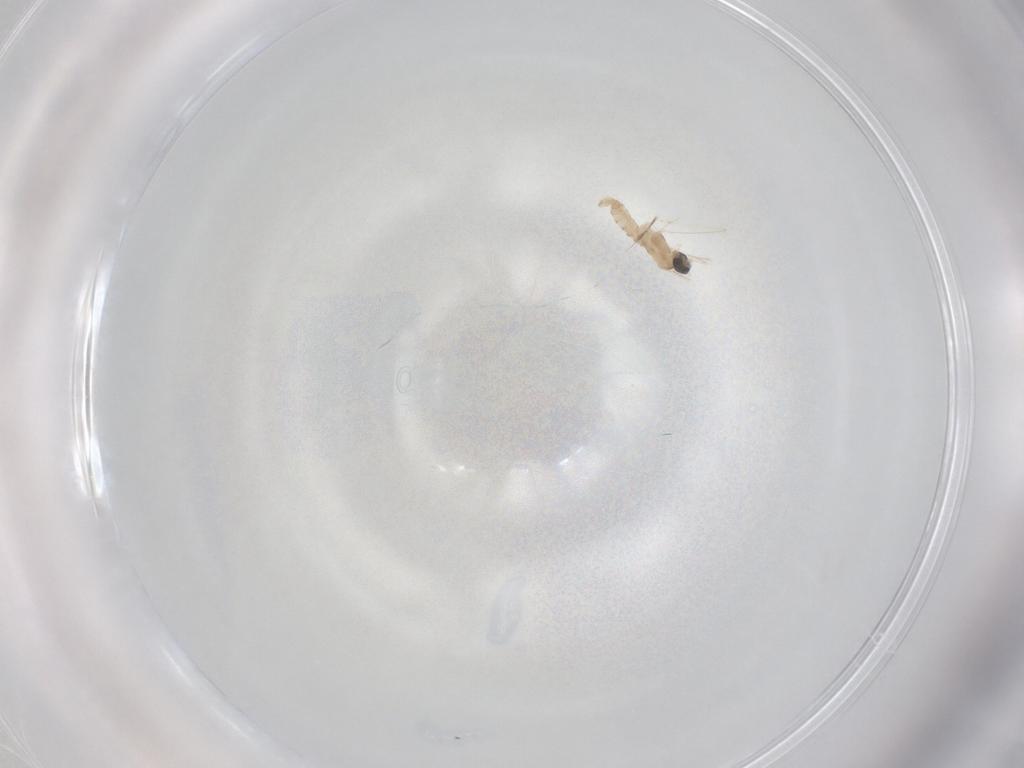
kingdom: Animalia
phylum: Arthropoda
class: Insecta
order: Diptera
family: Cecidomyiidae
